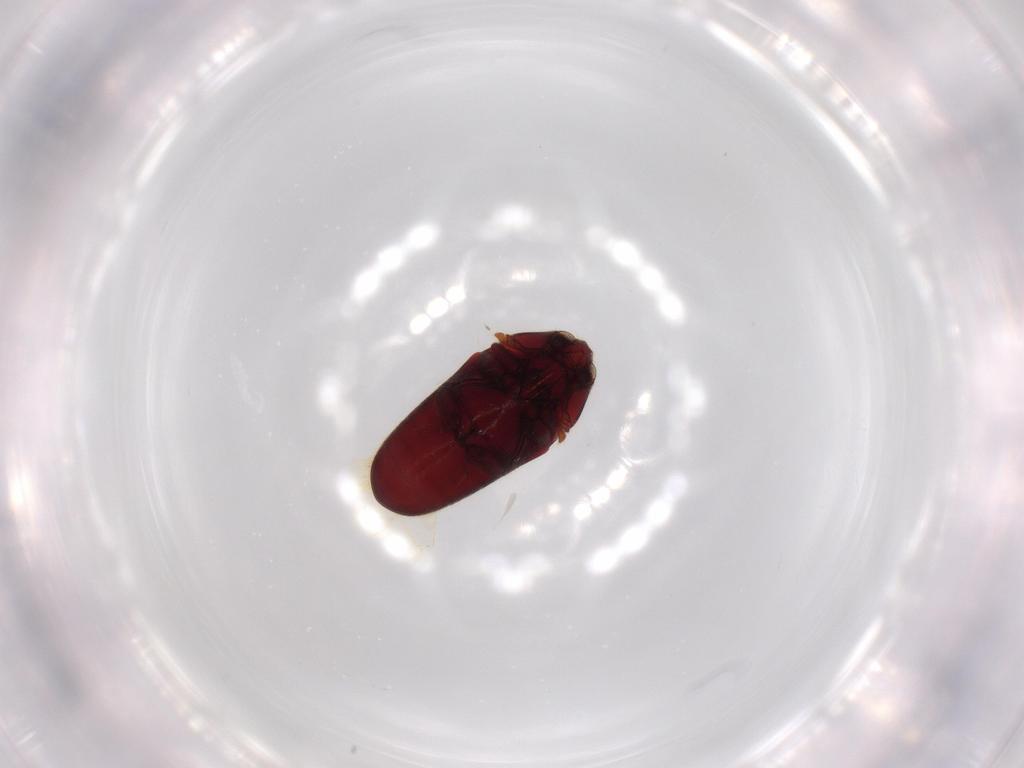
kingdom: Animalia
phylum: Arthropoda
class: Insecta
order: Coleoptera
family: Throscidae
